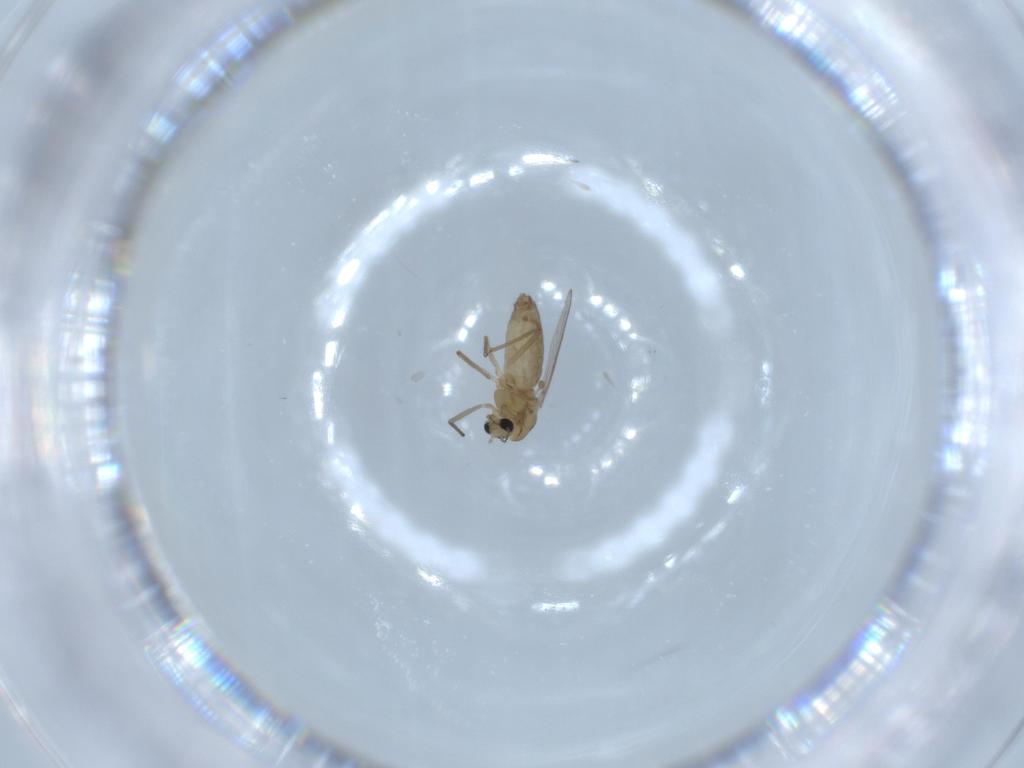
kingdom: Animalia
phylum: Arthropoda
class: Insecta
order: Diptera
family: Chironomidae
